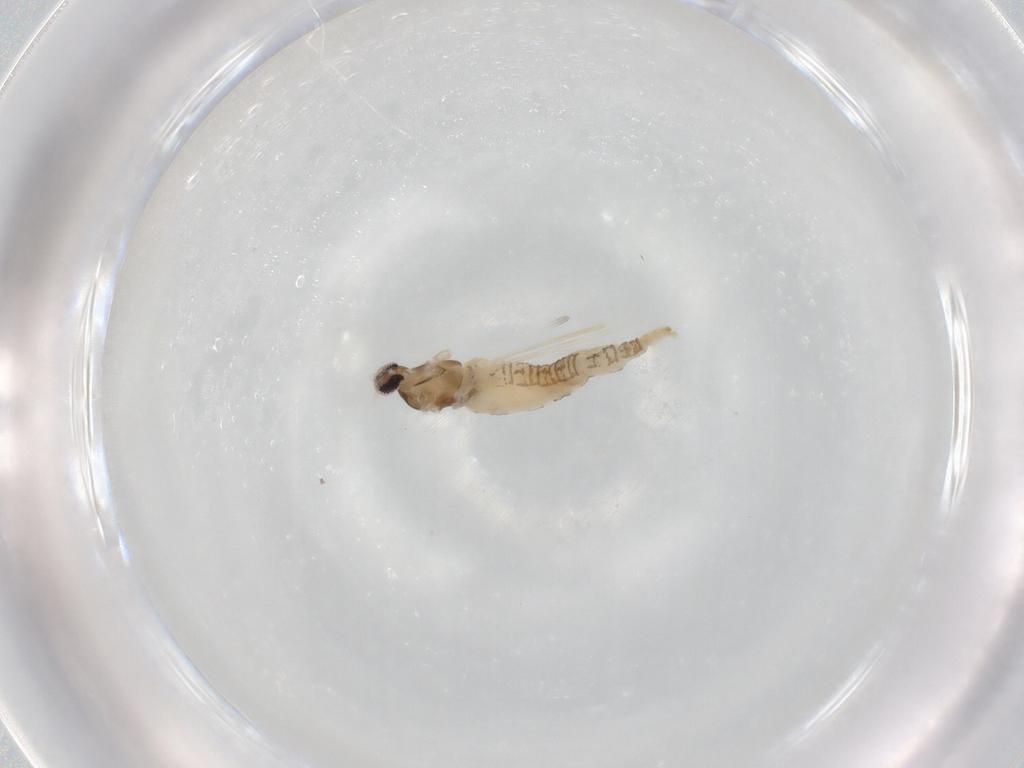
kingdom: Animalia
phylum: Arthropoda
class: Insecta
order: Diptera
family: Cecidomyiidae
